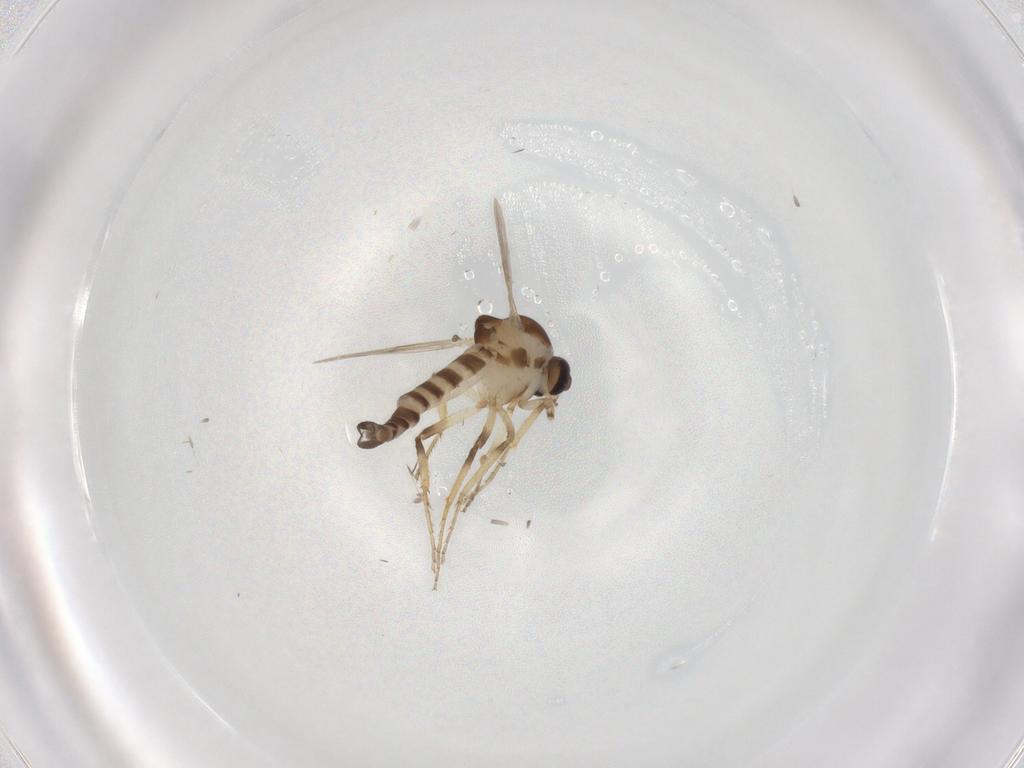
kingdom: Animalia
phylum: Arthropoda
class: Insecta
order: Diptera
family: Ceratopogonidae
